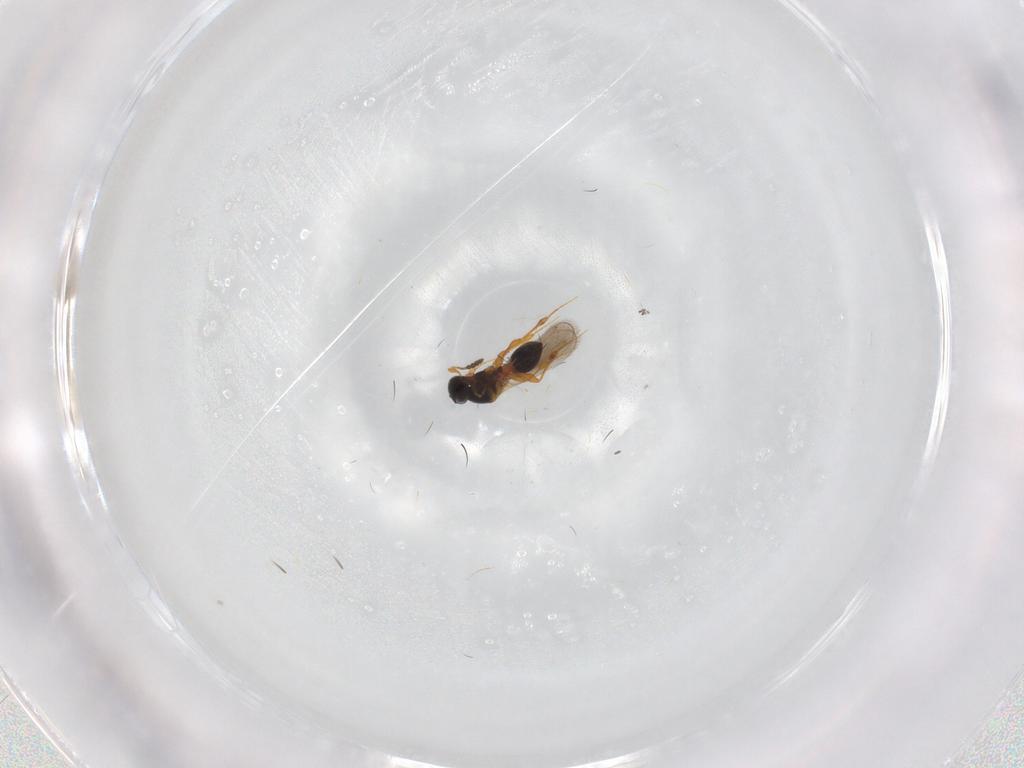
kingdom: Animalia
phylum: Arthropoda
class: Insecta
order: Hymenoptera
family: Platygastridae
